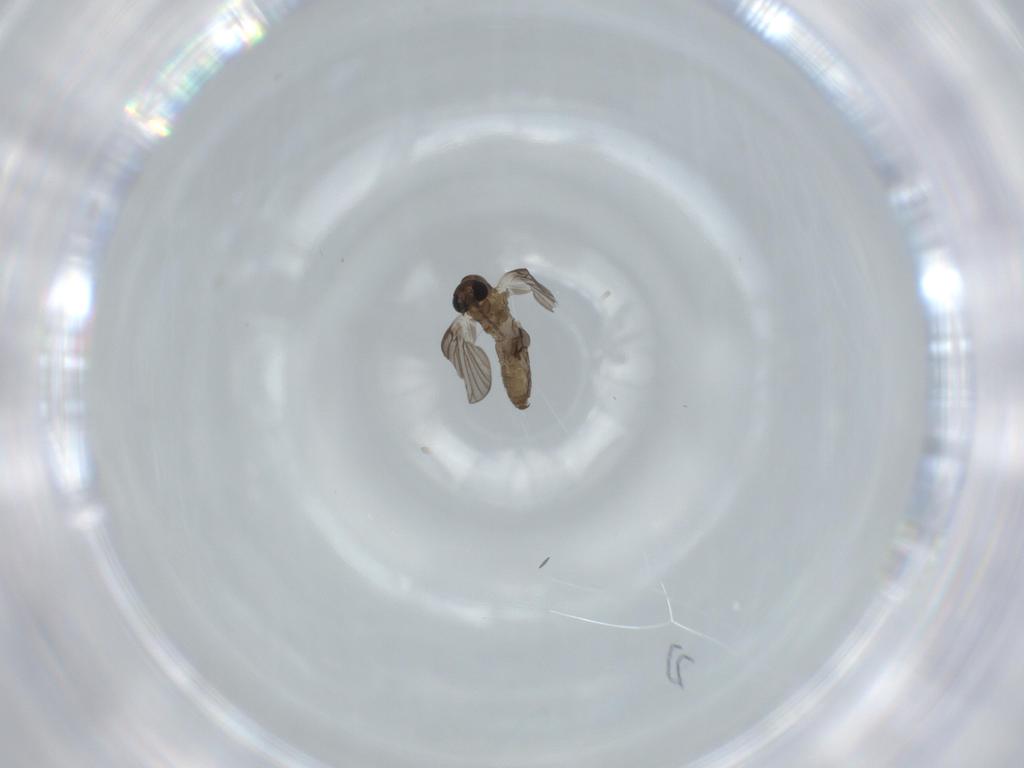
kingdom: Animalia
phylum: Arthropoda
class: Insecta
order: Diptera
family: Psychodidae
